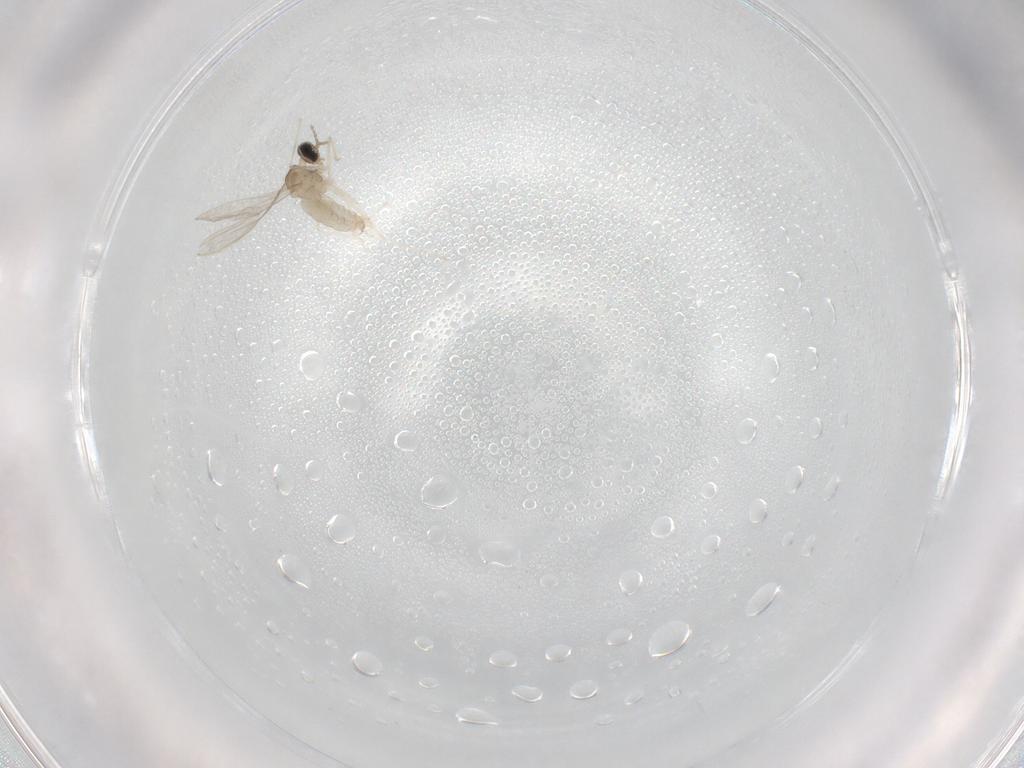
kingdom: Animalia
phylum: Arthropoda
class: Insecta
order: Diptera
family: Cecidomyiidae
